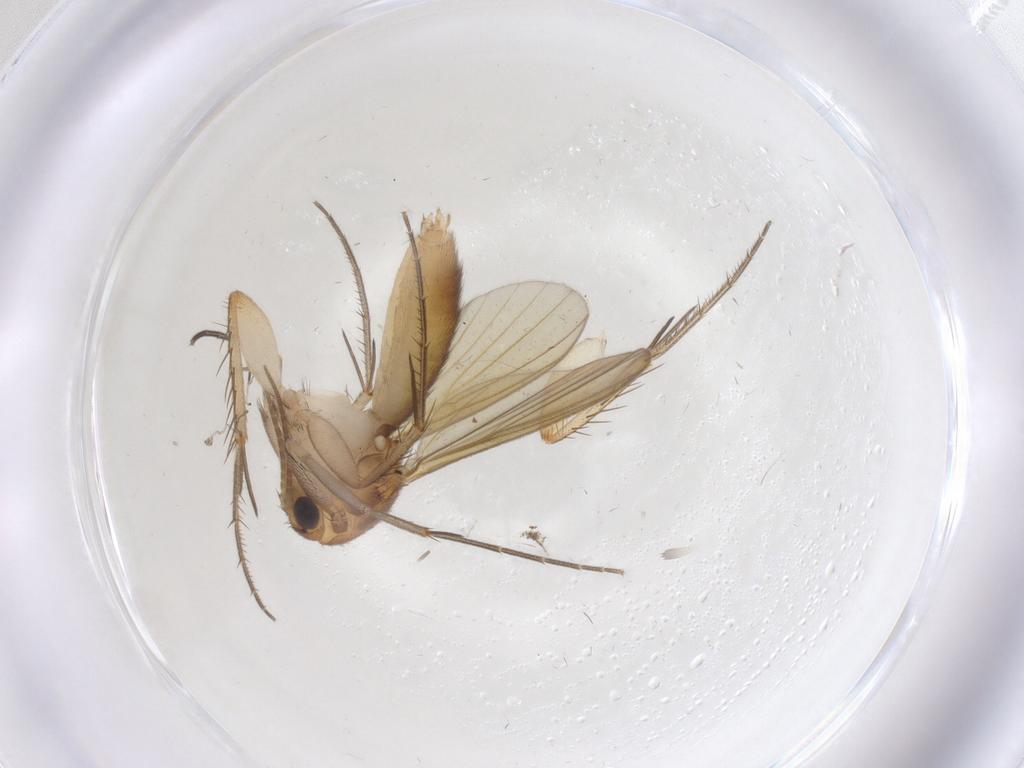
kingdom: Animalia
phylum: Arthropoda
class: Insecta
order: Diptera
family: Mycetophilidae
